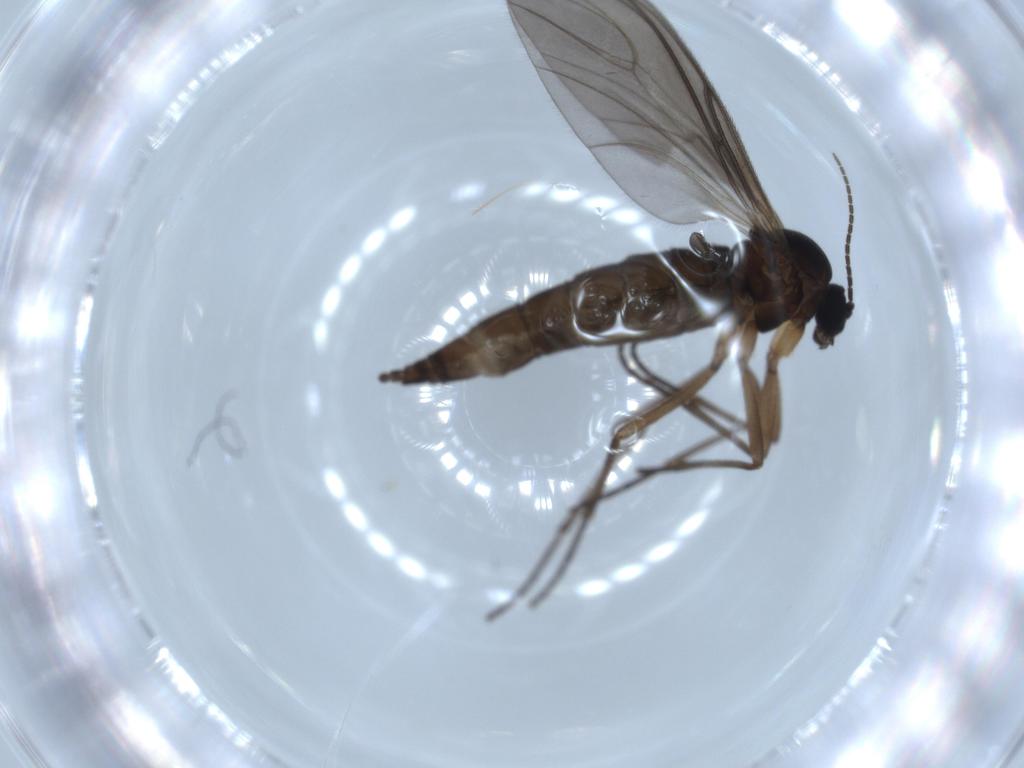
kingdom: Animalia
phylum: Arthropoda
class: Insecta
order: Diptera
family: Sciaridae
